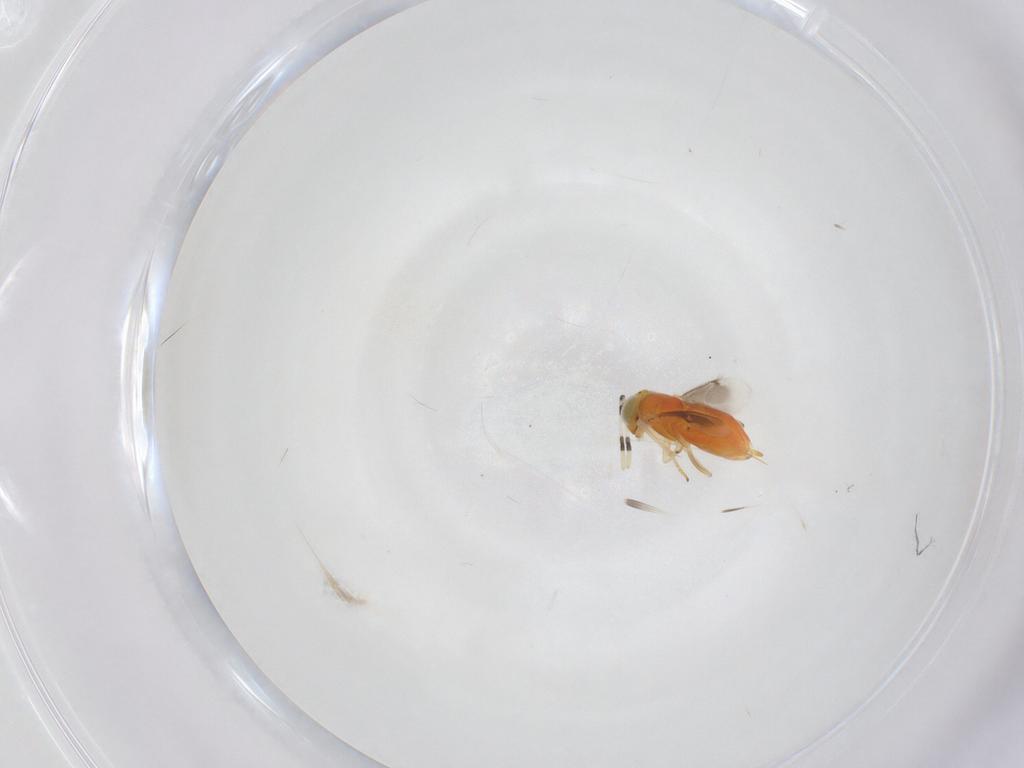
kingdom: Animalia
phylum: Arthropoda
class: Insecta
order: Hymenoptera
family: Encyrtidae
